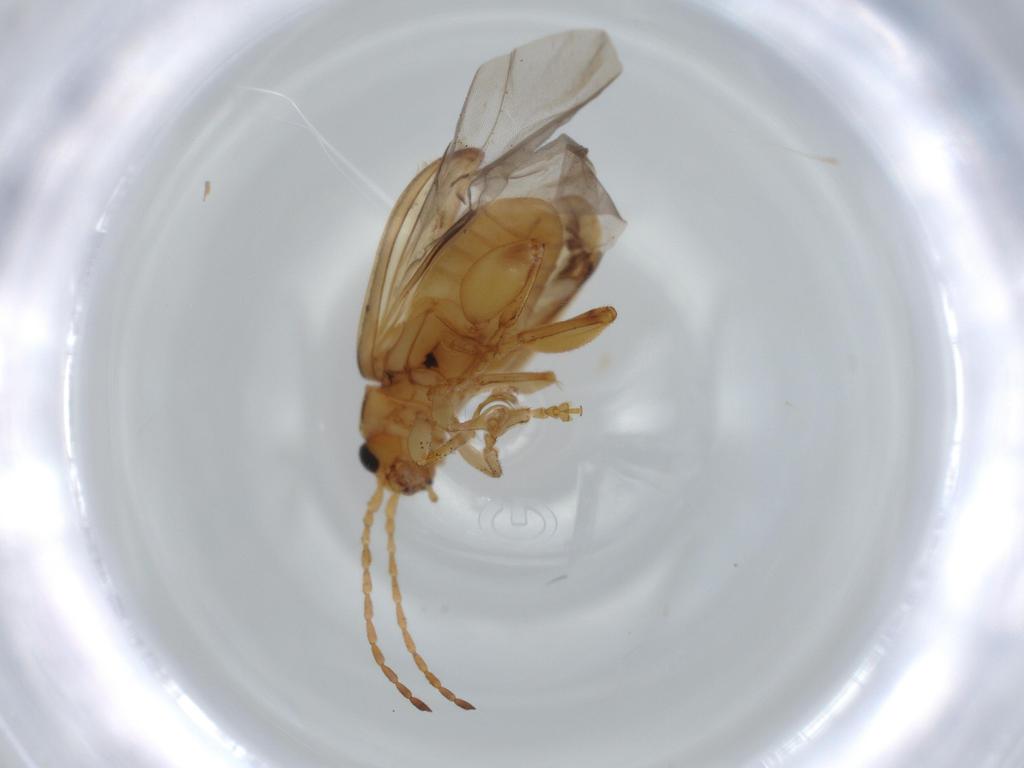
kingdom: Animalia
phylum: Arthropoda
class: Insecta
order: Coleoptera
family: Chrysomelidae
